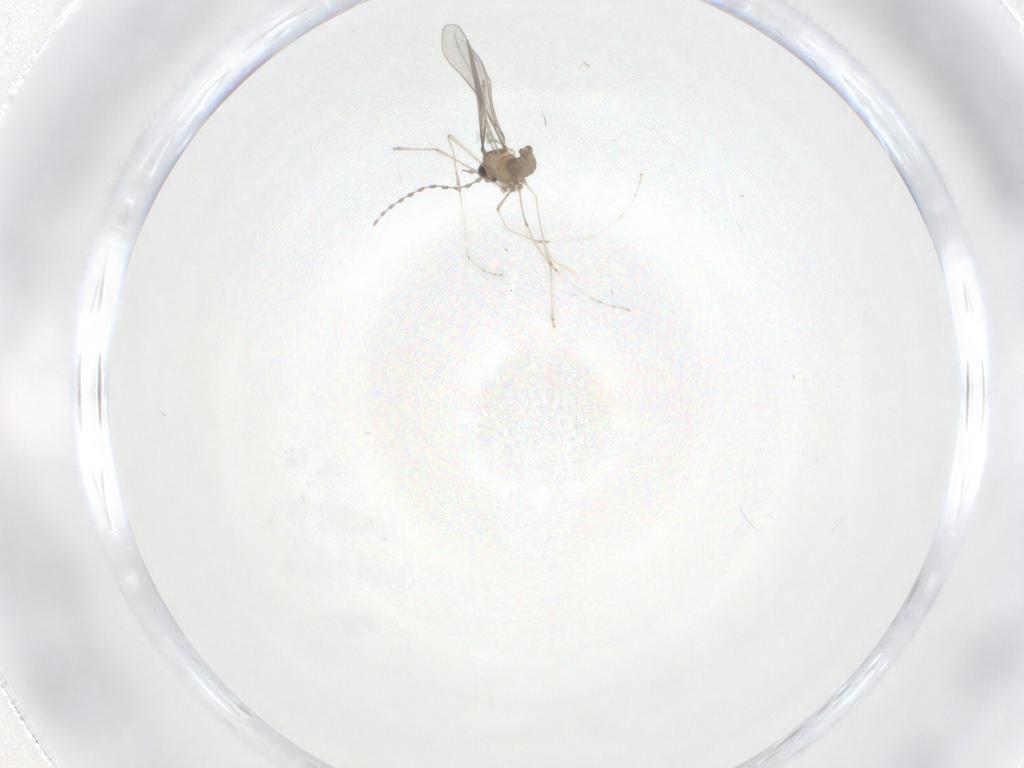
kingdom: Animalia
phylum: Arthropoda
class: Insecta
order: Diptera
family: Cecidomyiidae
